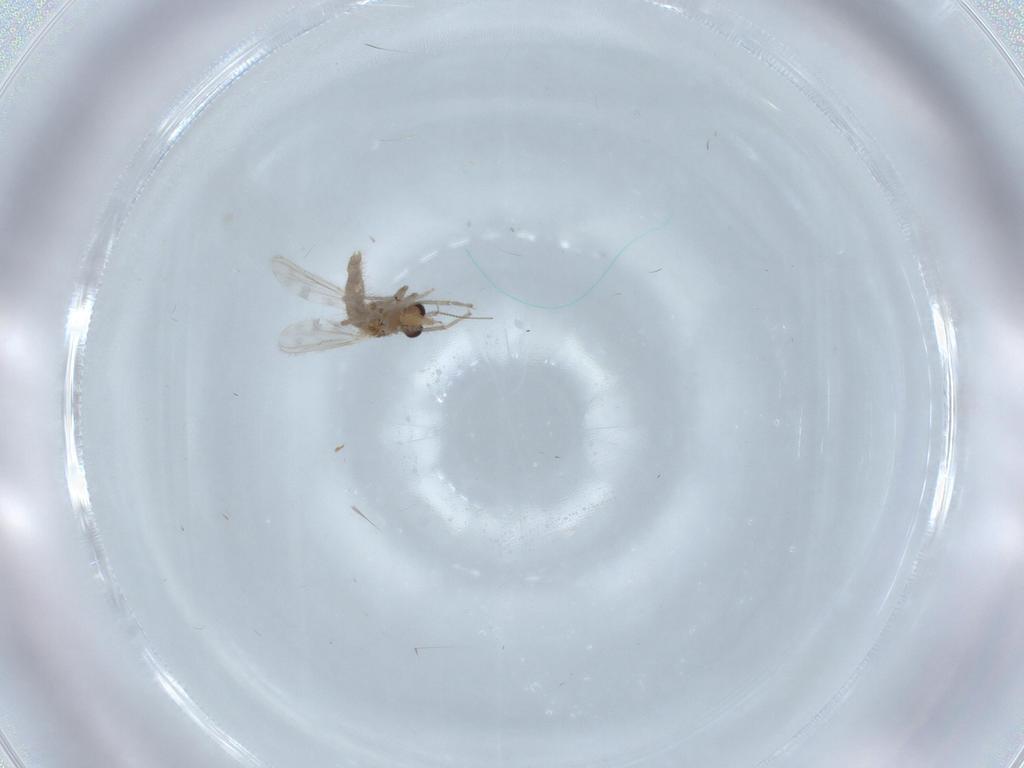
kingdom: Animalia
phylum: Arthropoda
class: Insecta
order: Diptera
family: Chironomidae
